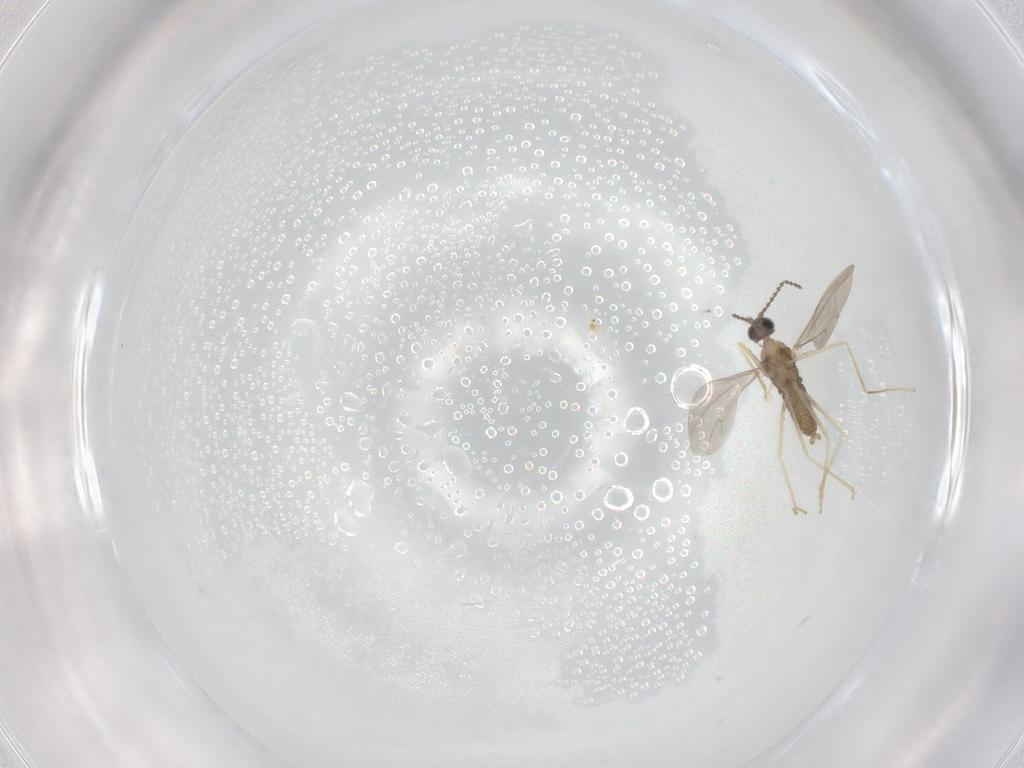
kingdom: Animalia
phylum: Arthropoda
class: Insecta
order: Diptera
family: Cecidomyiidae
